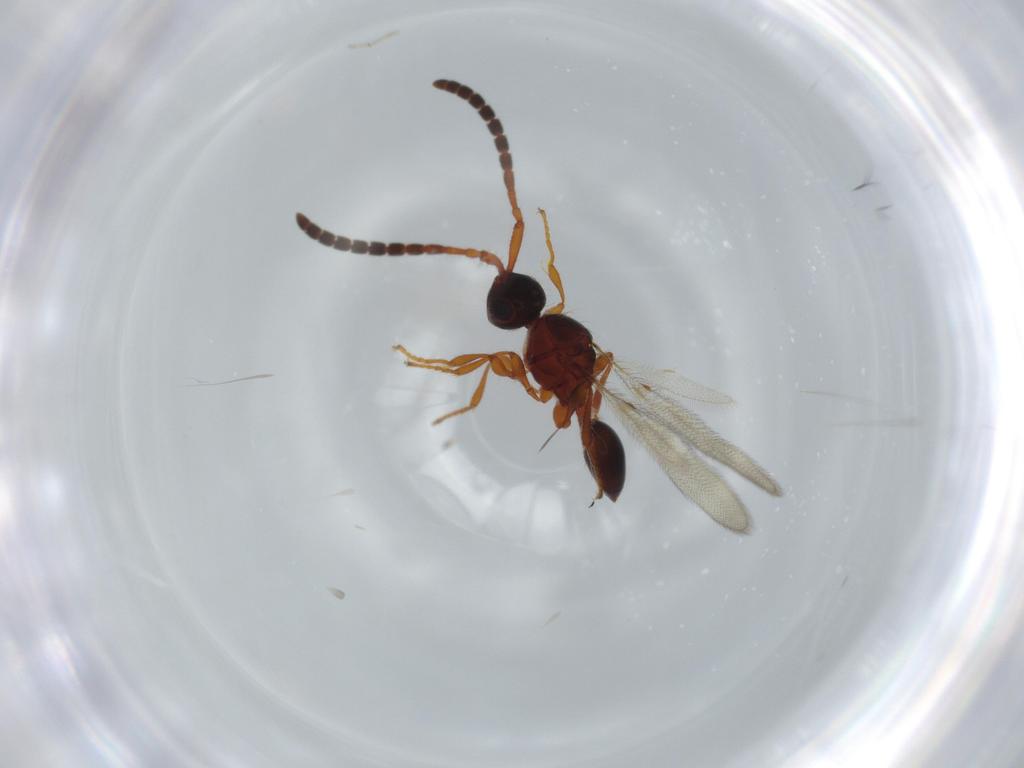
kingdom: Animalia
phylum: Arthropoda
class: Insecta
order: Hymenoptera
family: Diapriidae
